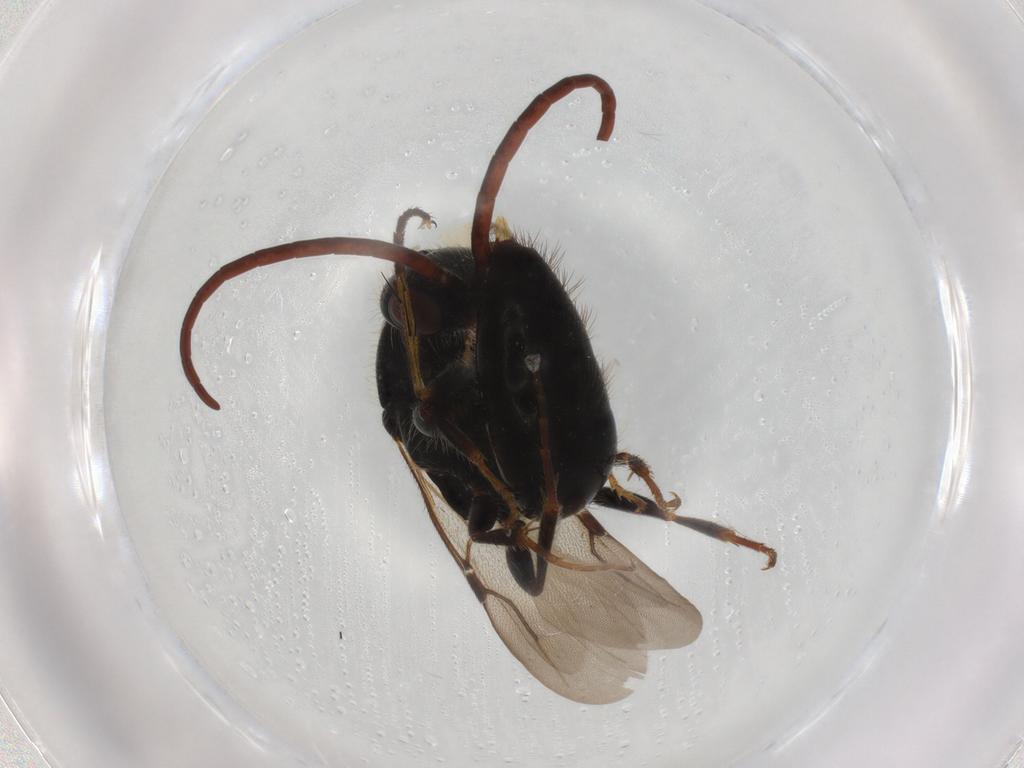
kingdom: Animalia
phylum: Arthropoda
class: Insecta
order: Hymenoptera
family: Bethylidae
